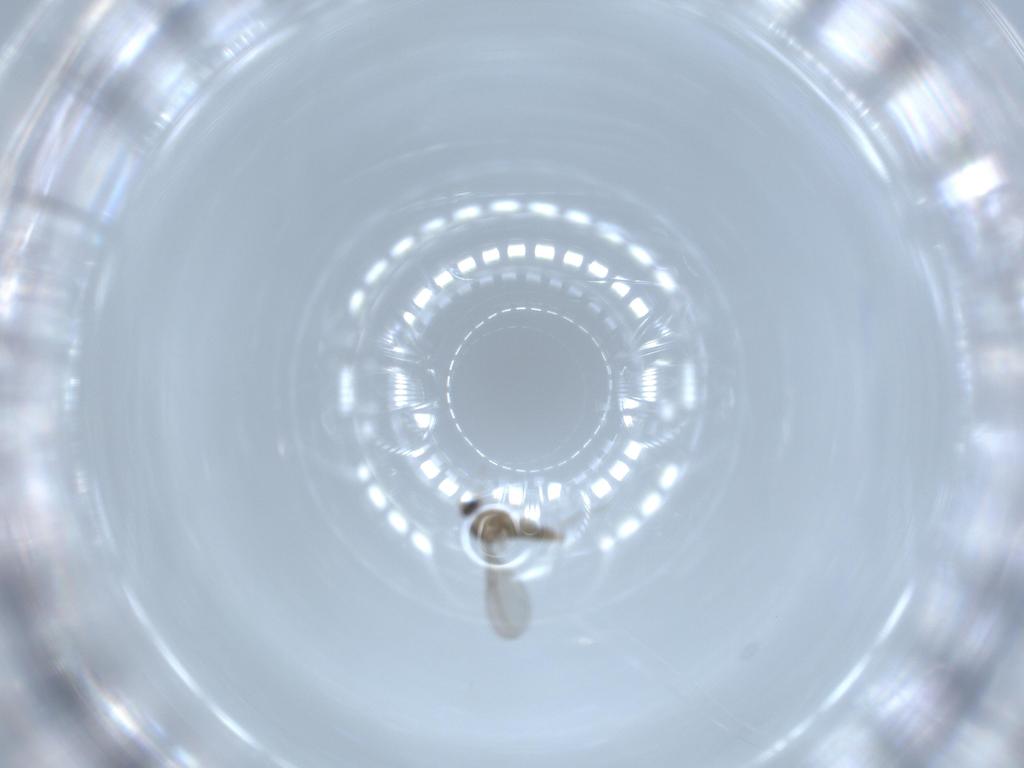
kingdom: Animalia
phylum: Arthropoda
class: Insecta
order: Diptera
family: Cecidomyiidae
